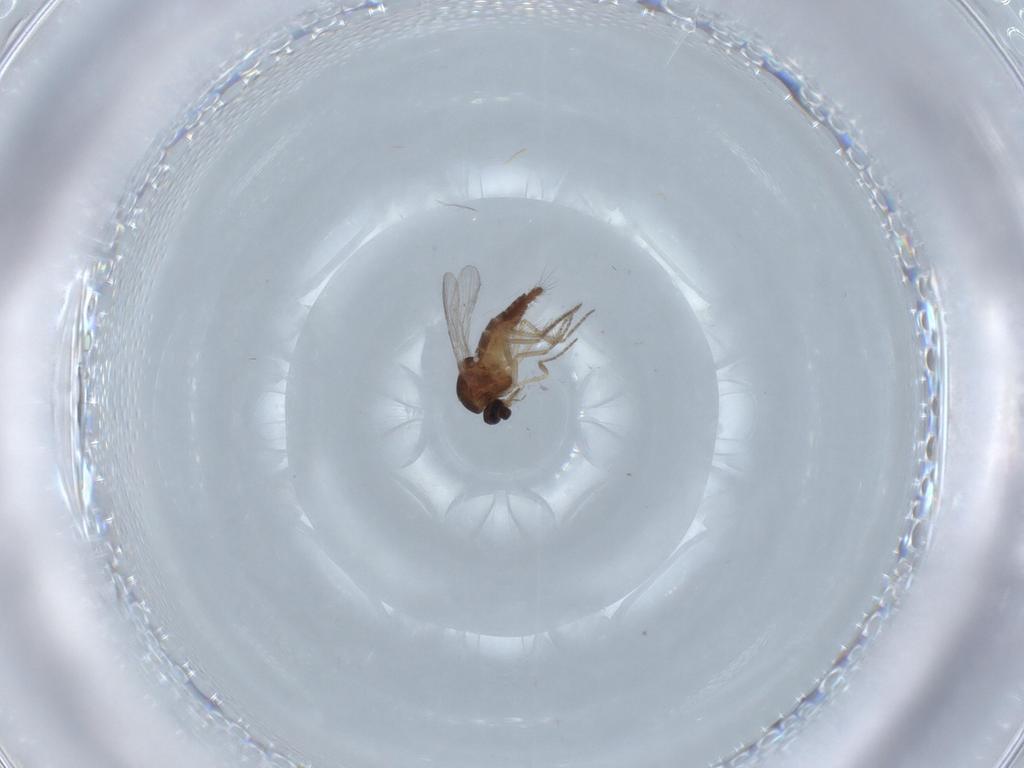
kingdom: Animalia
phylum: Arthropoda
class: Insecta
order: Diptera
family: Ceratopogonidae
